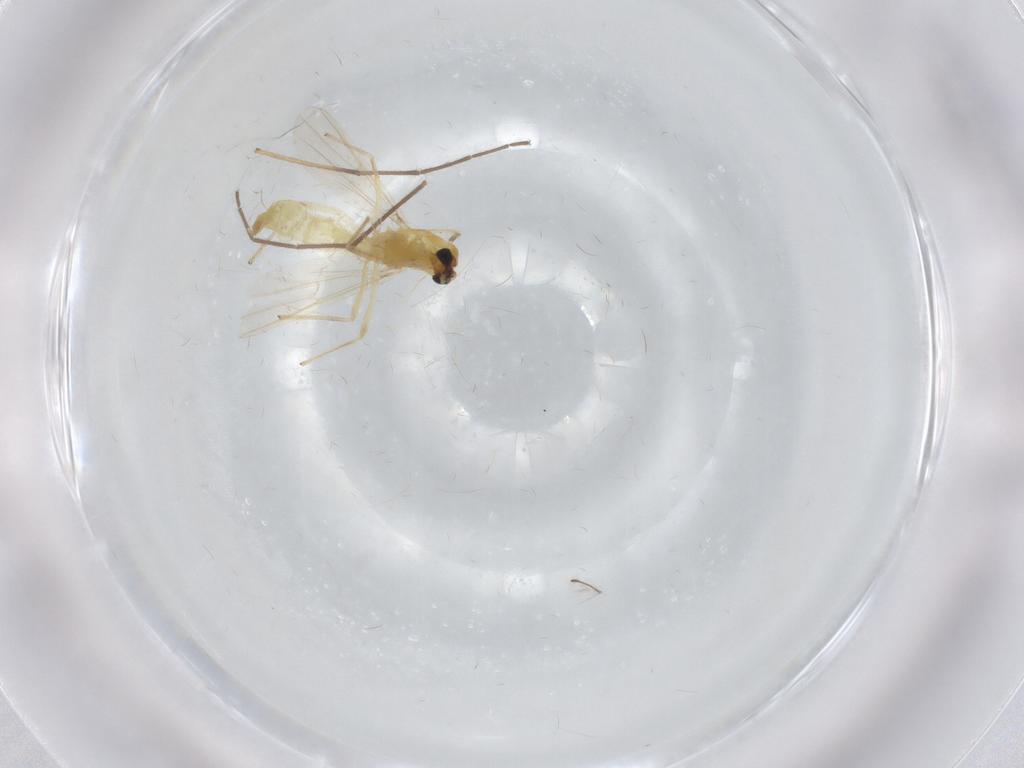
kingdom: Animalia
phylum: Arthropoda
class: Insecta
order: Diptera
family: Chironomidae
